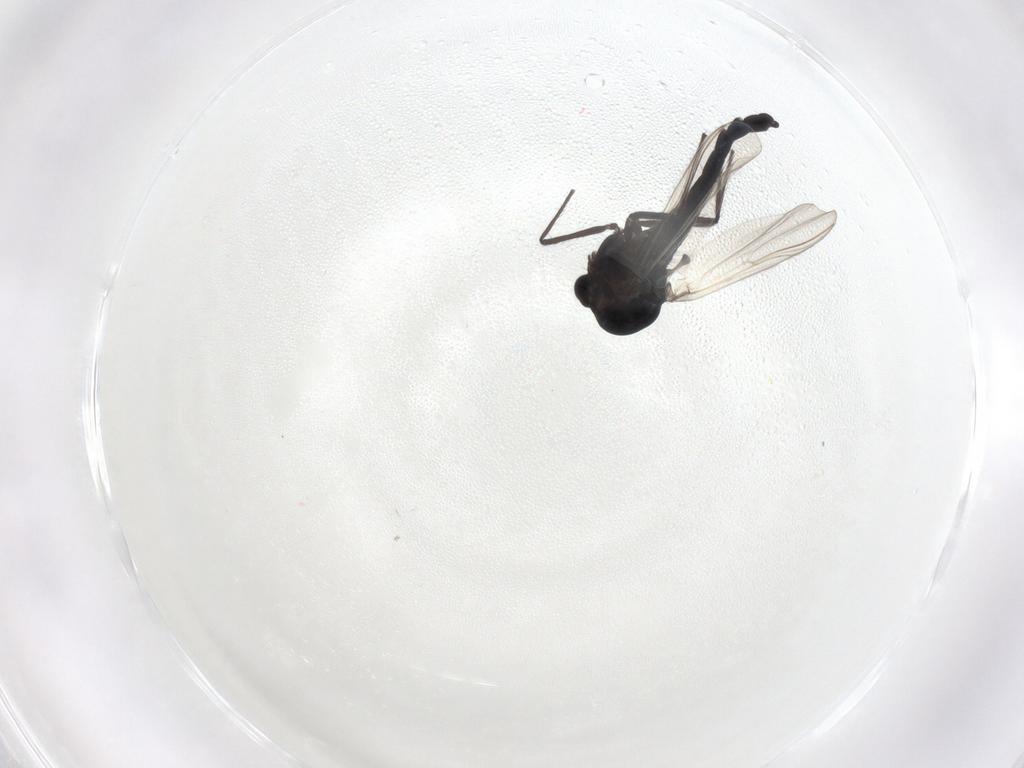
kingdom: Animalia
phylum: Arthropoda
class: Insecta
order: Diptera
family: Chironomidae
